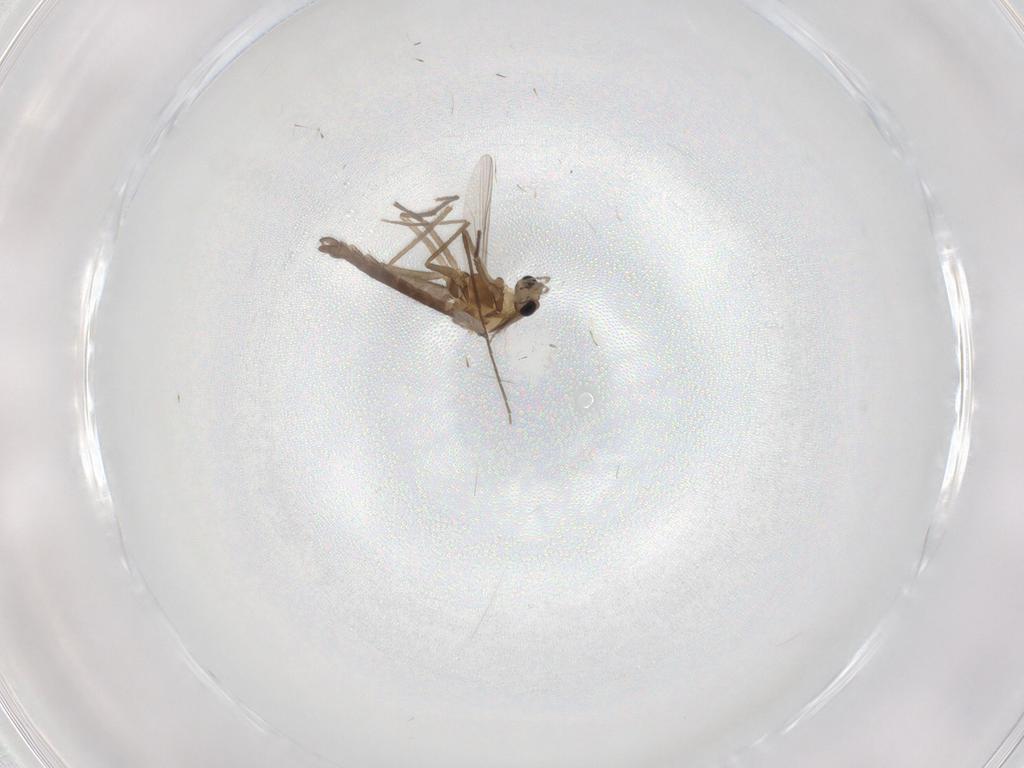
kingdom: Animalia
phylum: Arthropoda
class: Insecta
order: Diptera
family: Chironomidae
